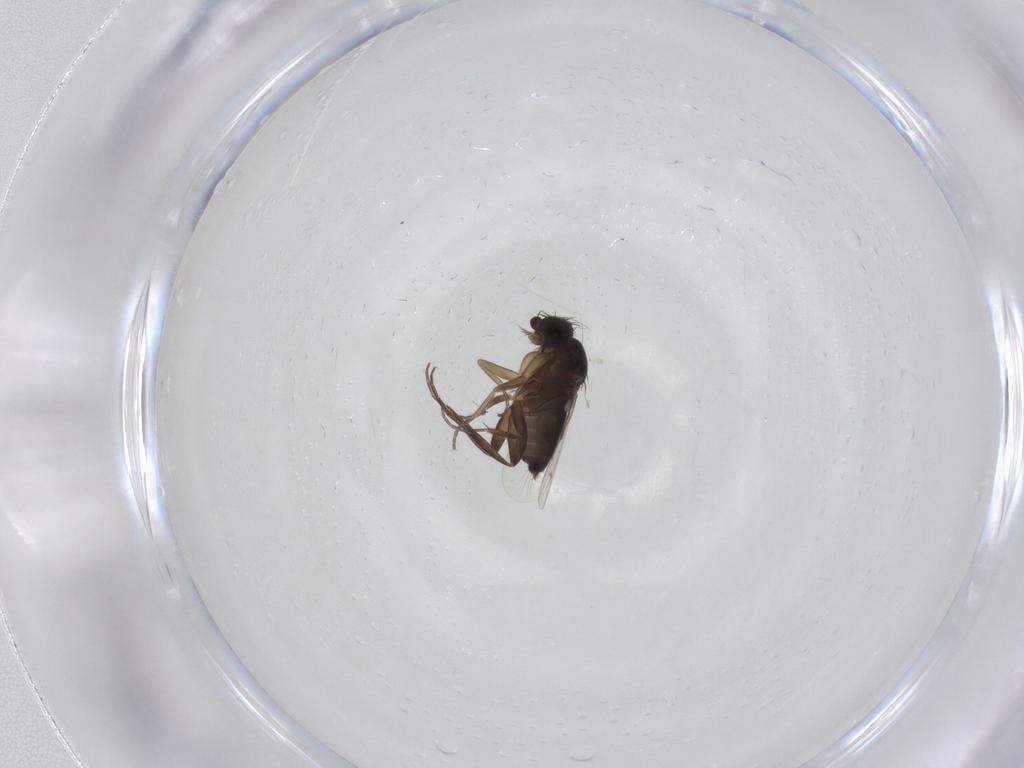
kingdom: Animalia
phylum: Arthropoda
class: Insecta
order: Diptera
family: Phoridae
